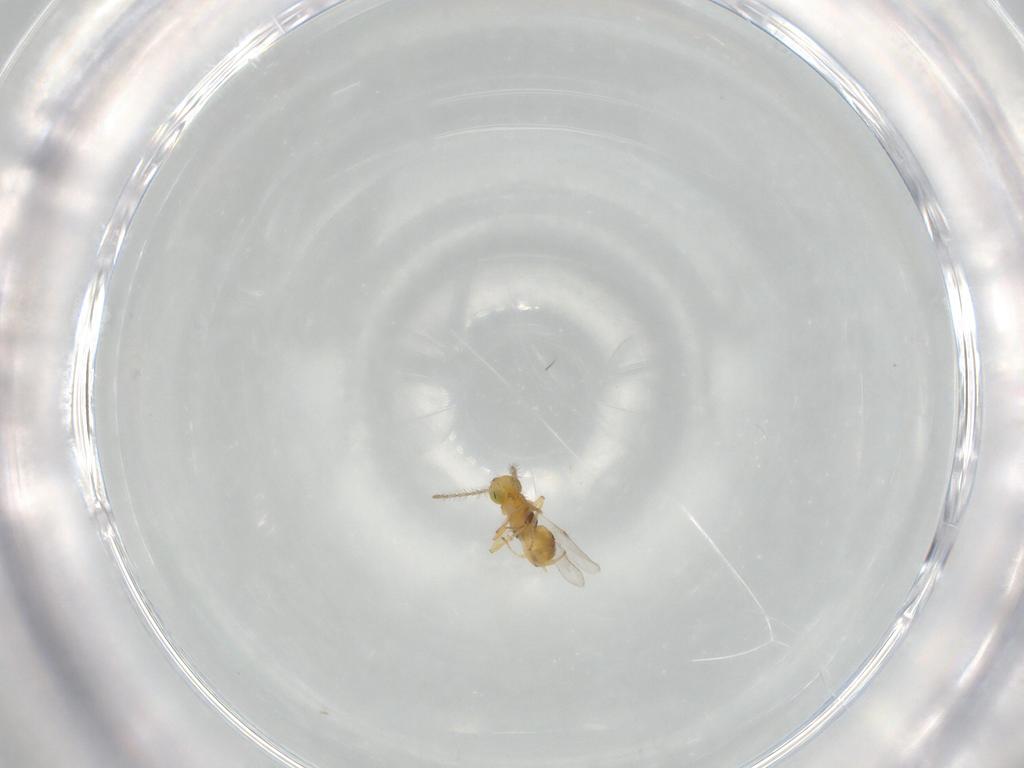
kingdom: Animalia
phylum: Arthropoda
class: Insecta
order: Hymenoptera
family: Encyrtidae
